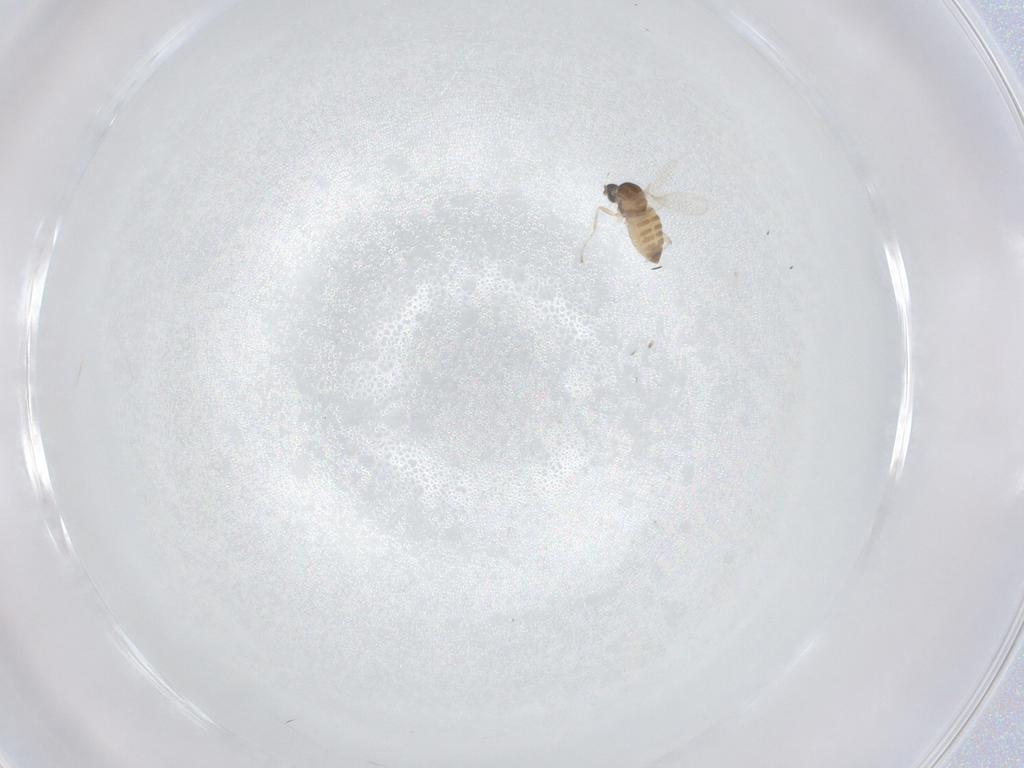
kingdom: Animalia
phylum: Arthropoda
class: Insecta
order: Diptera
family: Cecidomyiidae
